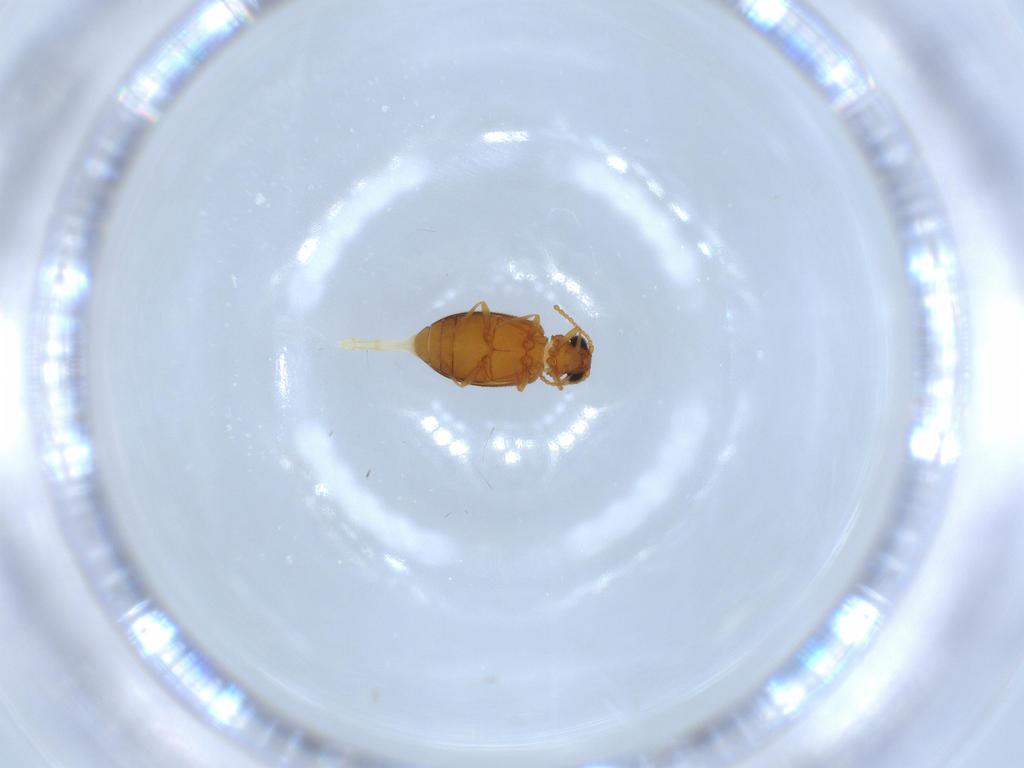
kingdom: Animalia
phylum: Arthropoda
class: Insecta
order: Coleoptera
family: Aderidae
